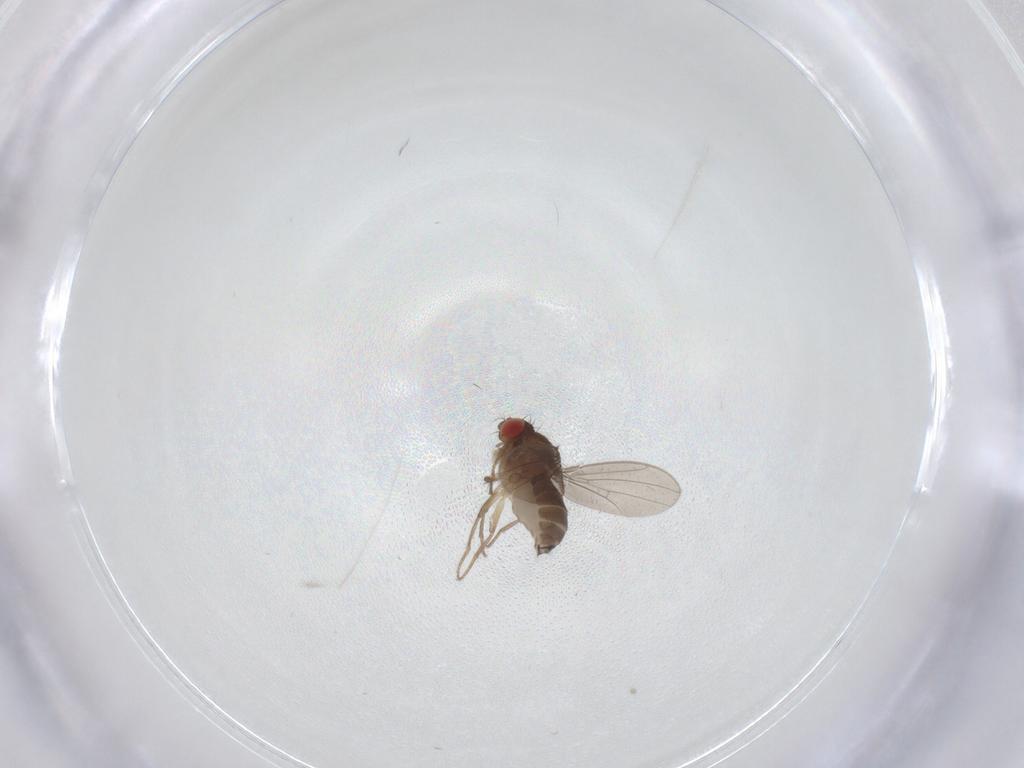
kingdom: Animalia
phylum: Arthropoda
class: Insecta
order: Diptera
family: Drosophilidae
